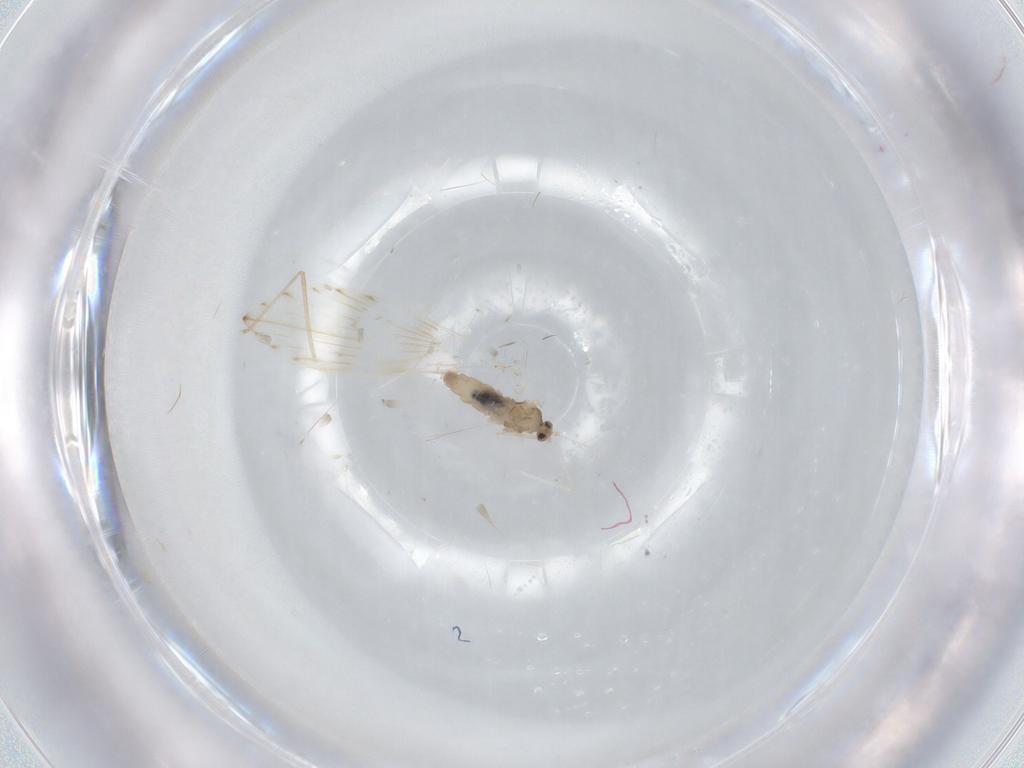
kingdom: Animalia
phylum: Arthropoda
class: Insecta
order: Diptera
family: Cecidomyiidae
